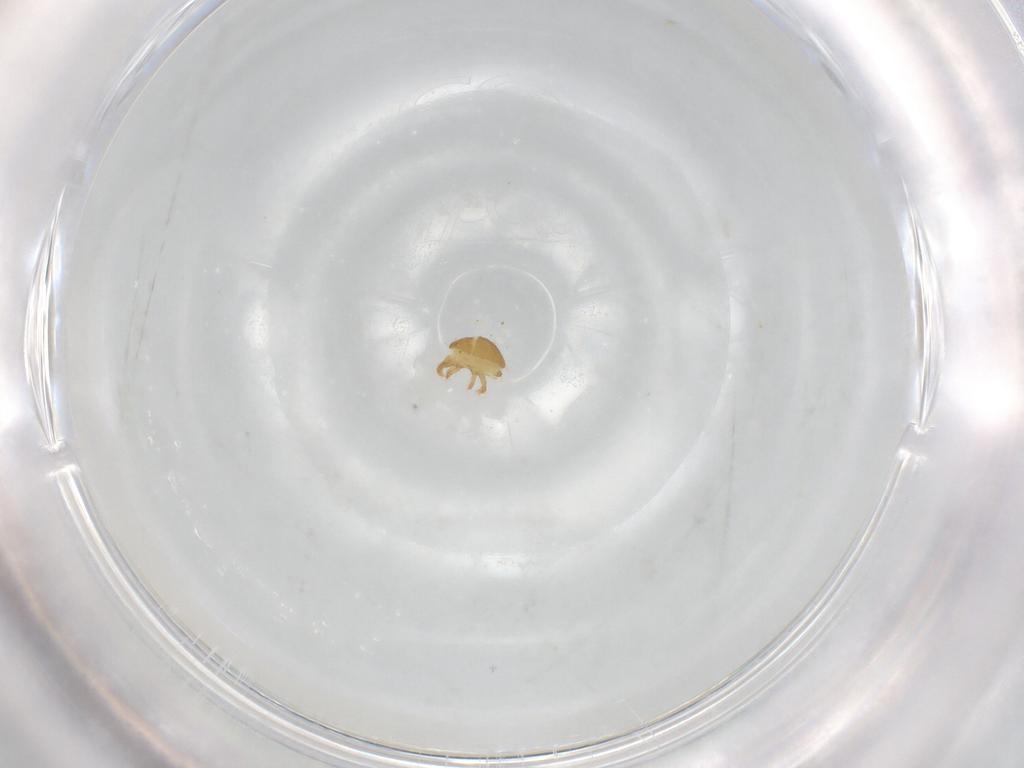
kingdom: Animalia
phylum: Arthropoda
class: Arachnida
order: Trombidiformes
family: Stigmaeidae
